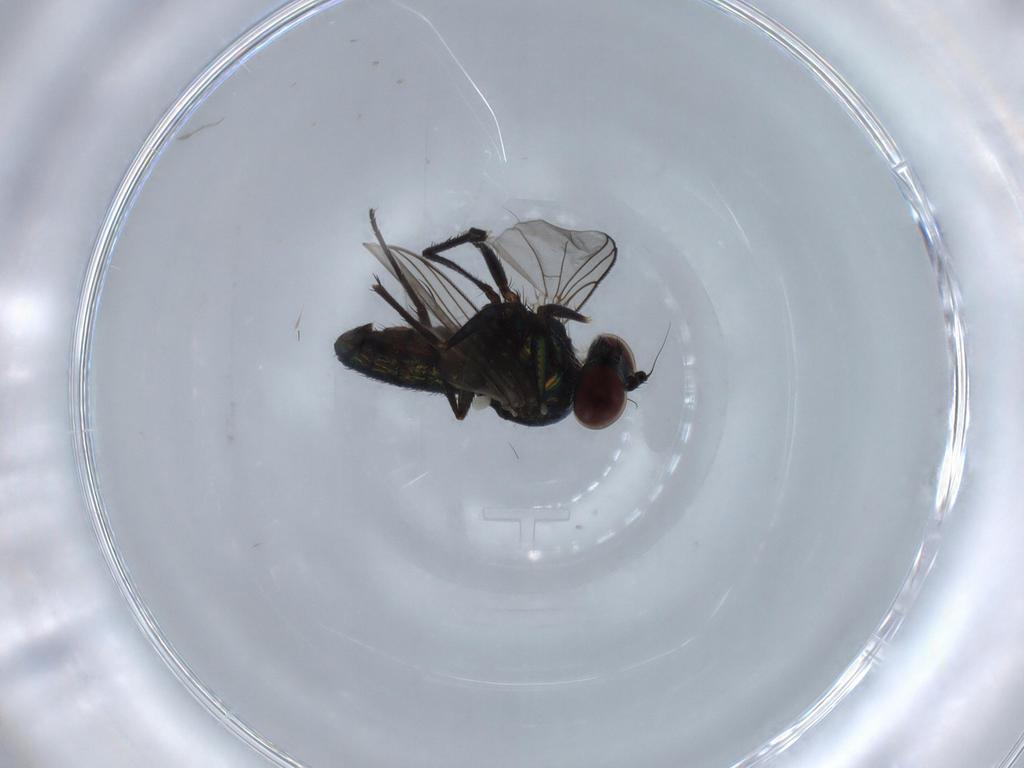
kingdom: Animalia
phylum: Arthropoda
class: Insecta
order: Diptera
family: Dolichopodidae
